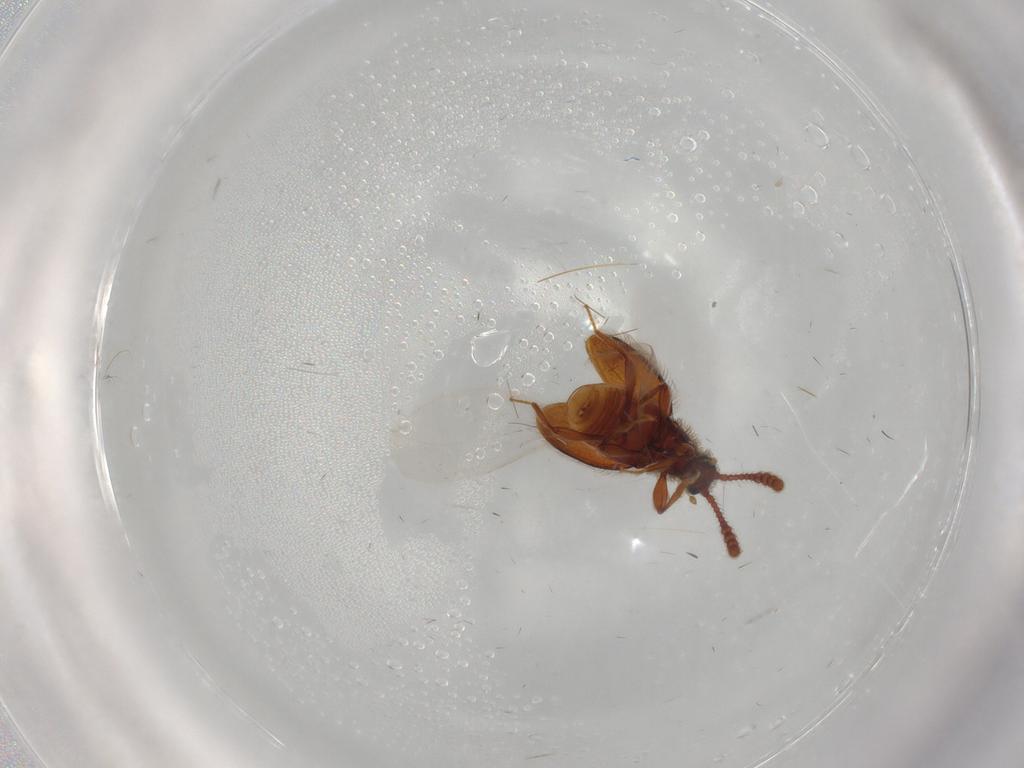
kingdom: Animalia
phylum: Arthropoda
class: Insecta
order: Coleoptera
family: Staphylinidae
